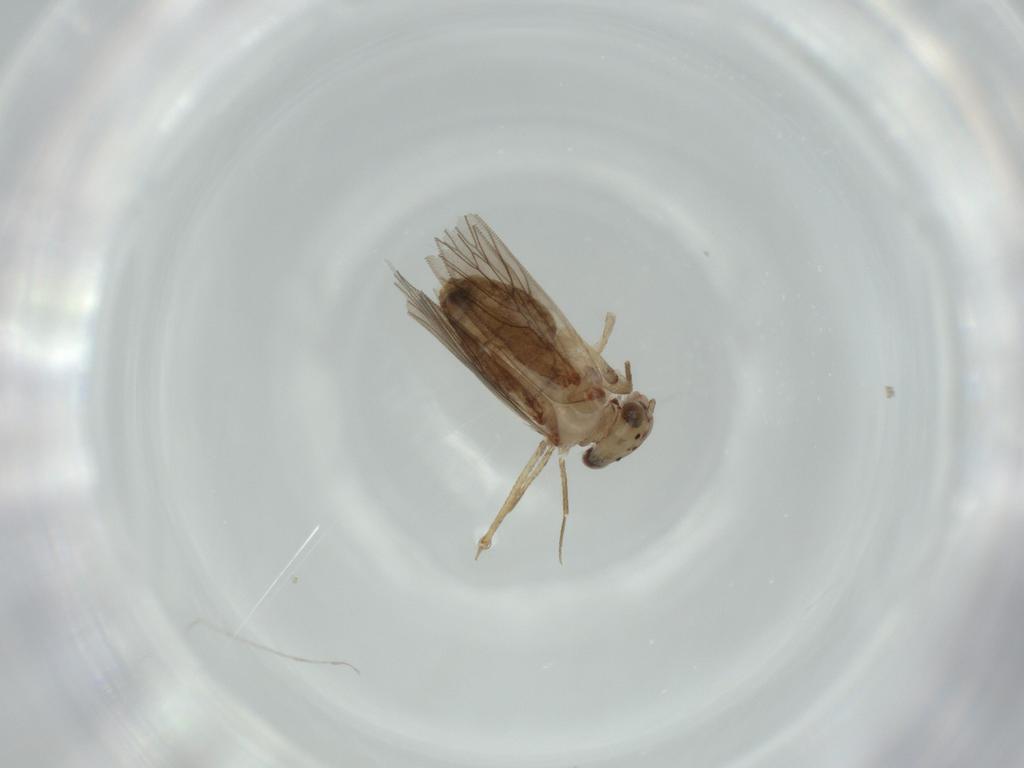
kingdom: Animalia
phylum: Arthropoda
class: Insecta
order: Psocodea
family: Lepidopsocidae
